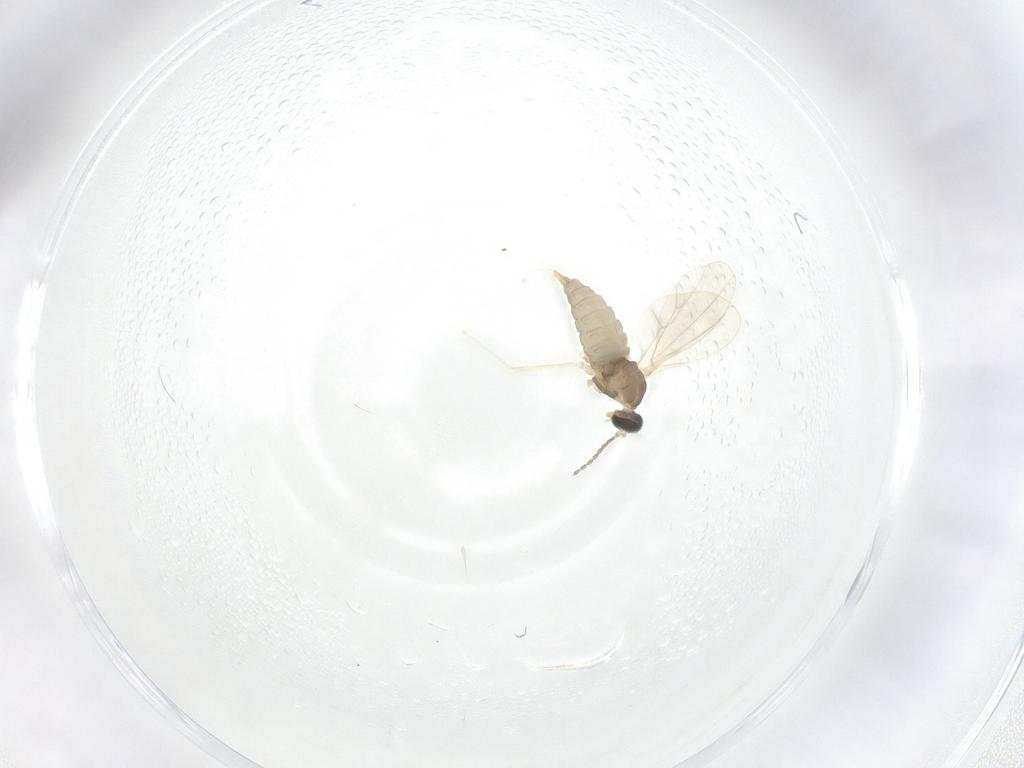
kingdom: Animalia
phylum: Arthropoda
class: Insecta
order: Diptera
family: Cecidomyiidae
